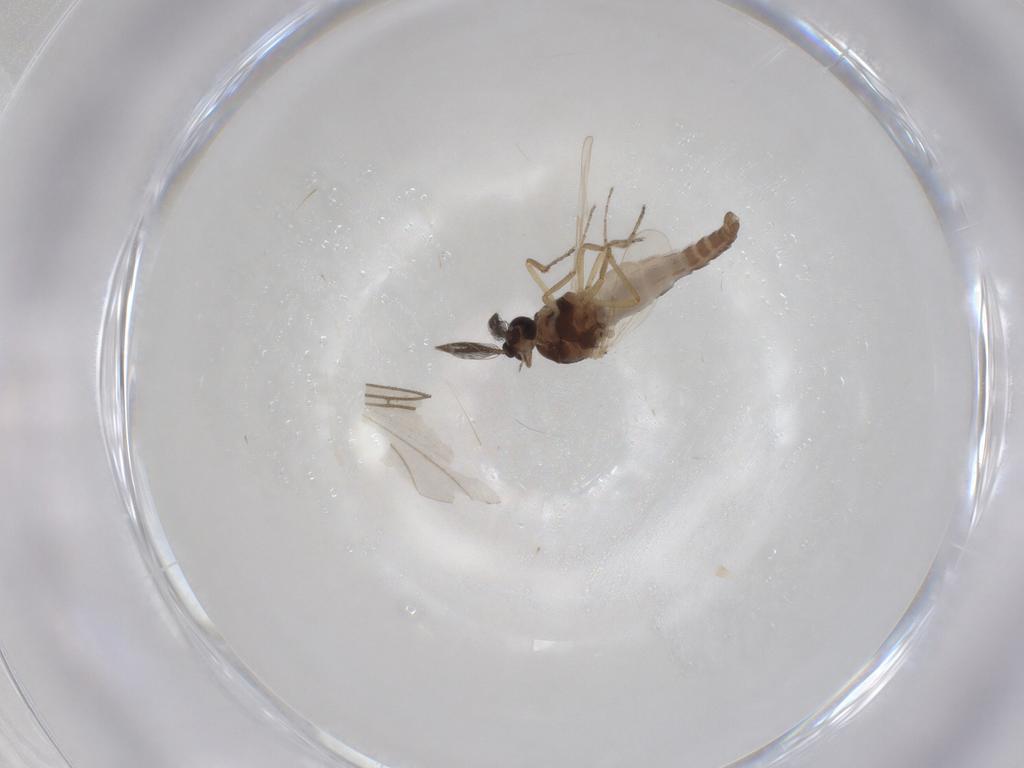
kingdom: Animalia
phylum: Arthropoda
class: Insecta
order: Diptera
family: Ceratopogonidae
